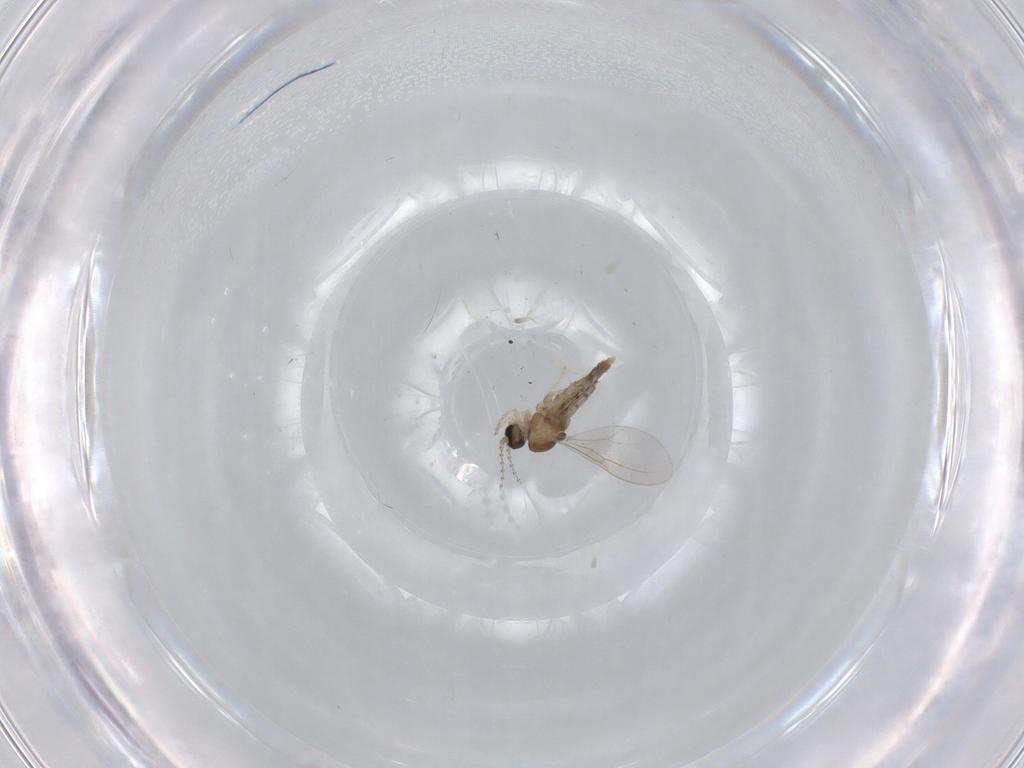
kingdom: Animalia
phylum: Arthropoda
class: Insecta
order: Diptera
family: Cecidomyiidae
